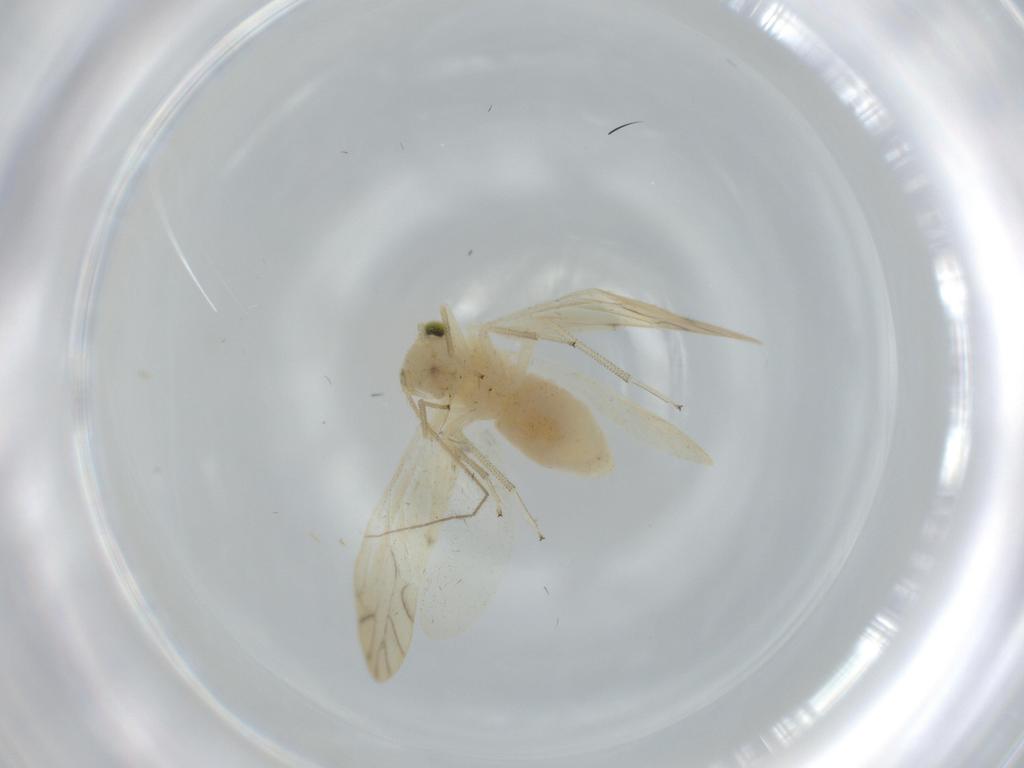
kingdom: Animalia
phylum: Arthropoda
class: Insecta
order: Psocodea
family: Caeciliusidae
